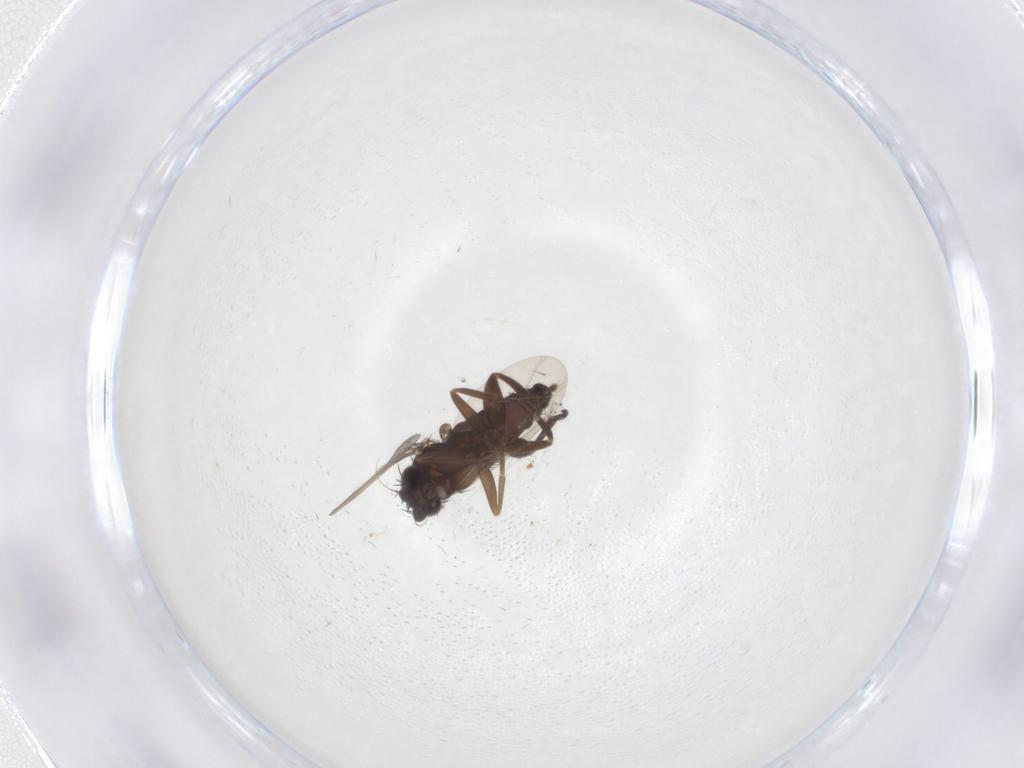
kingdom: Animalia
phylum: Arthropoda
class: Insecta
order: Diptera
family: Phoridae
